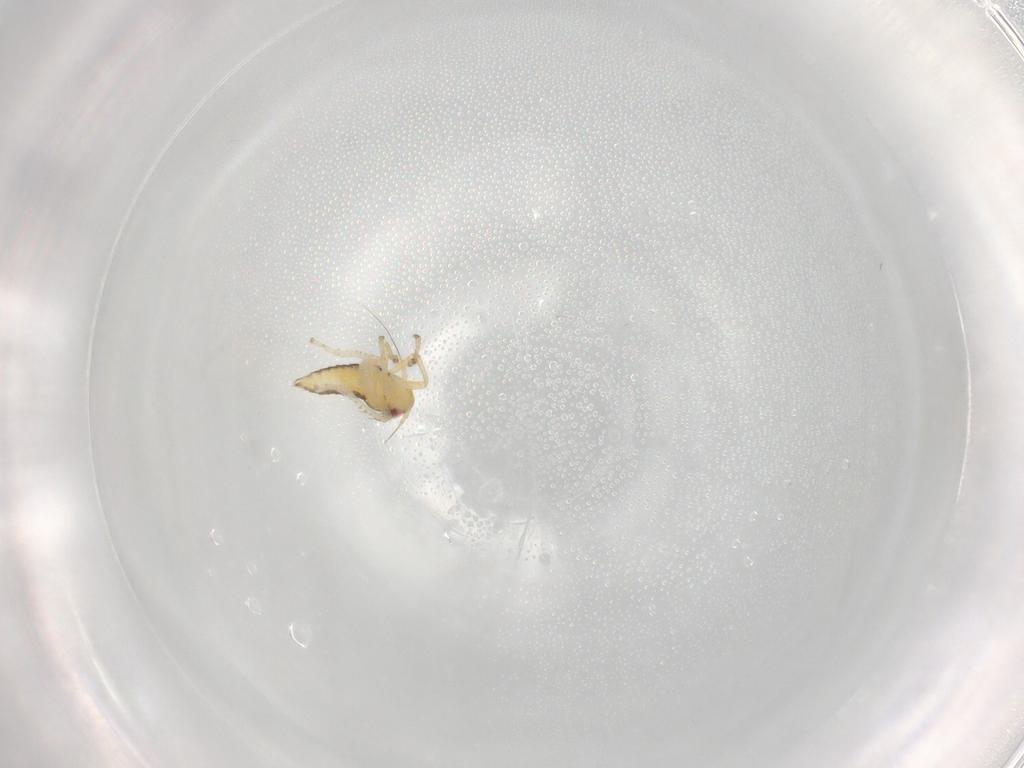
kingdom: Animalia
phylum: Arthropoda
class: Insecta
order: Hemiptera
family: Cicadellidae
